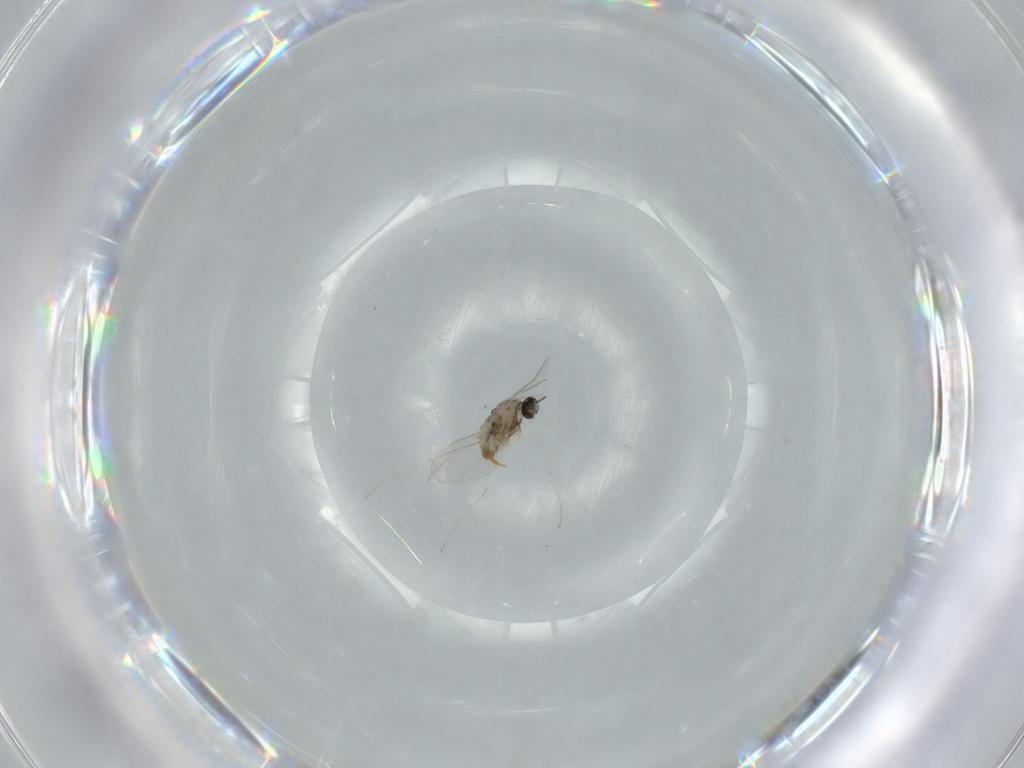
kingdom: Animalia
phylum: Arthropoda
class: Insecta
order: Diptera
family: Cecidomyiidae
